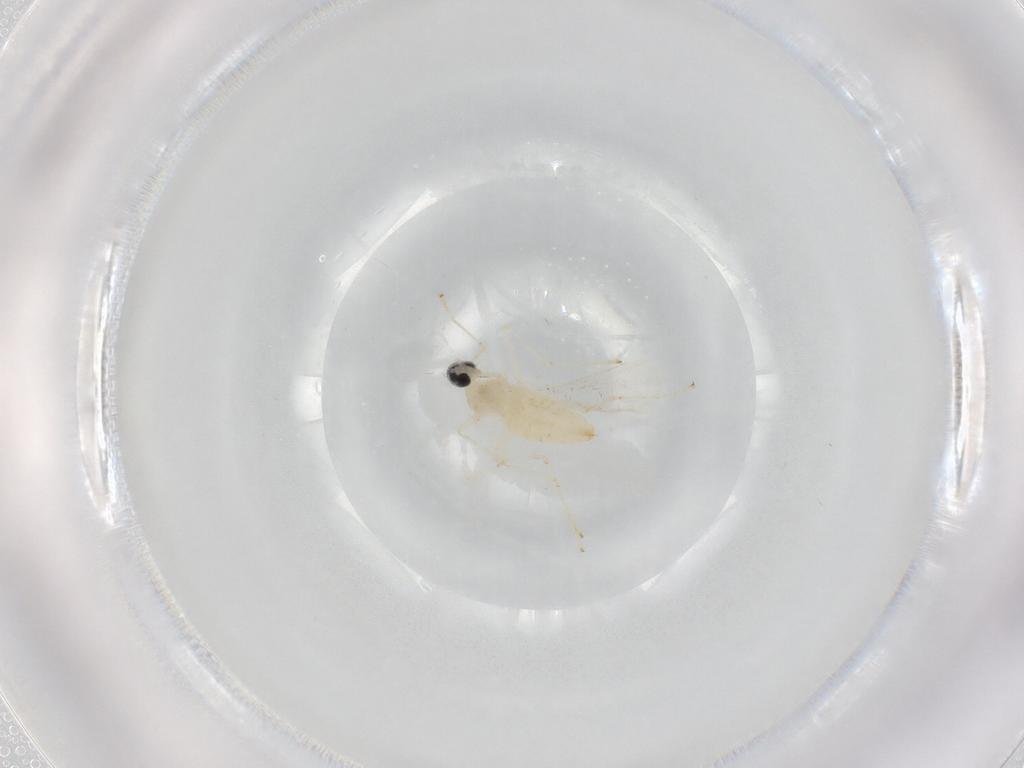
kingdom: Animalia
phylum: Arthropoda
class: Insecta
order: Diptera
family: Cecidomyiidae
